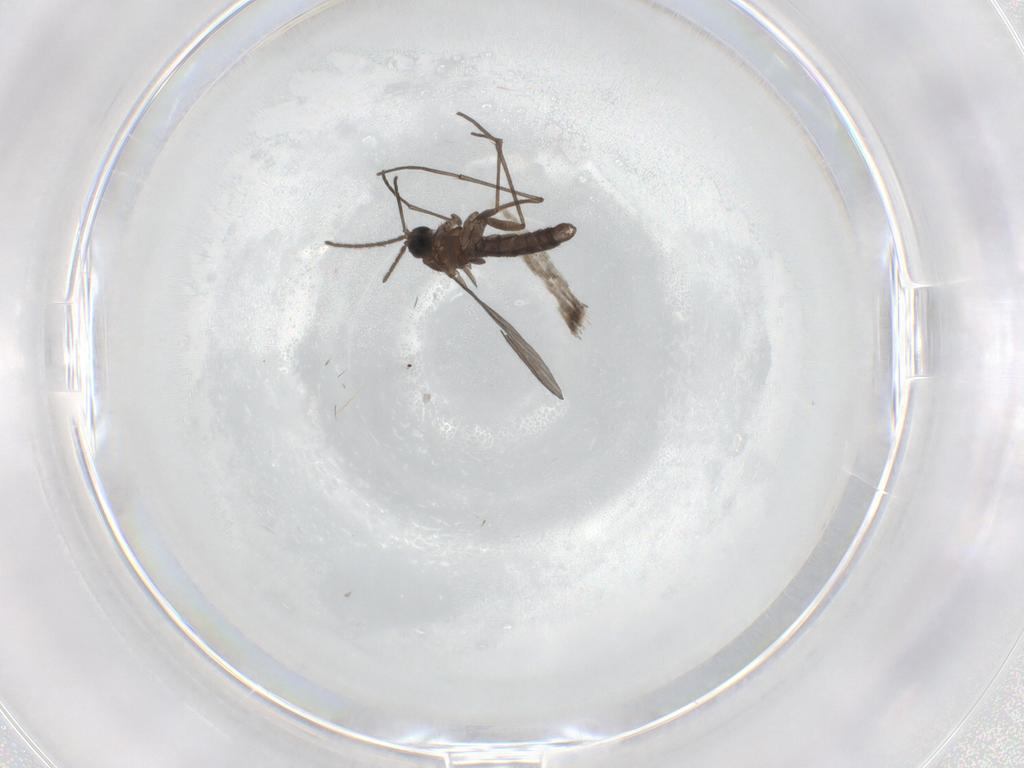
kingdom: Animalia
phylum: Arthropoda
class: Insecta
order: Diptera
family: Sciaridae
